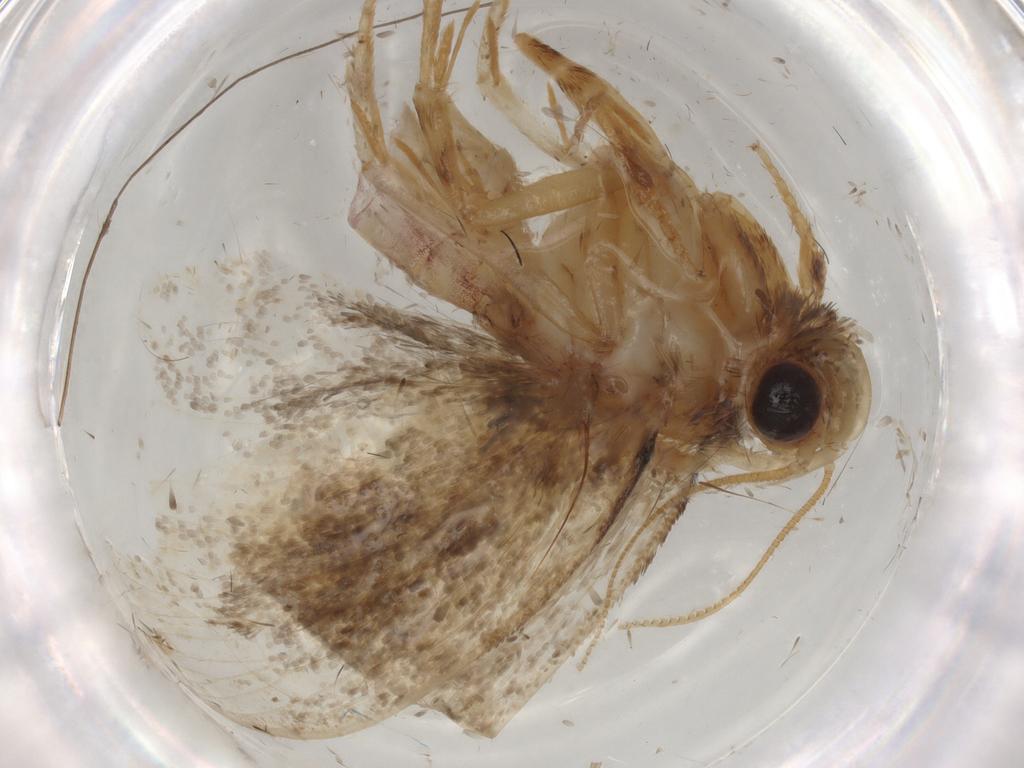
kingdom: Animalia
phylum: Arthropoda
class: Insecta
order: Lepidoptera
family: Tineidae
